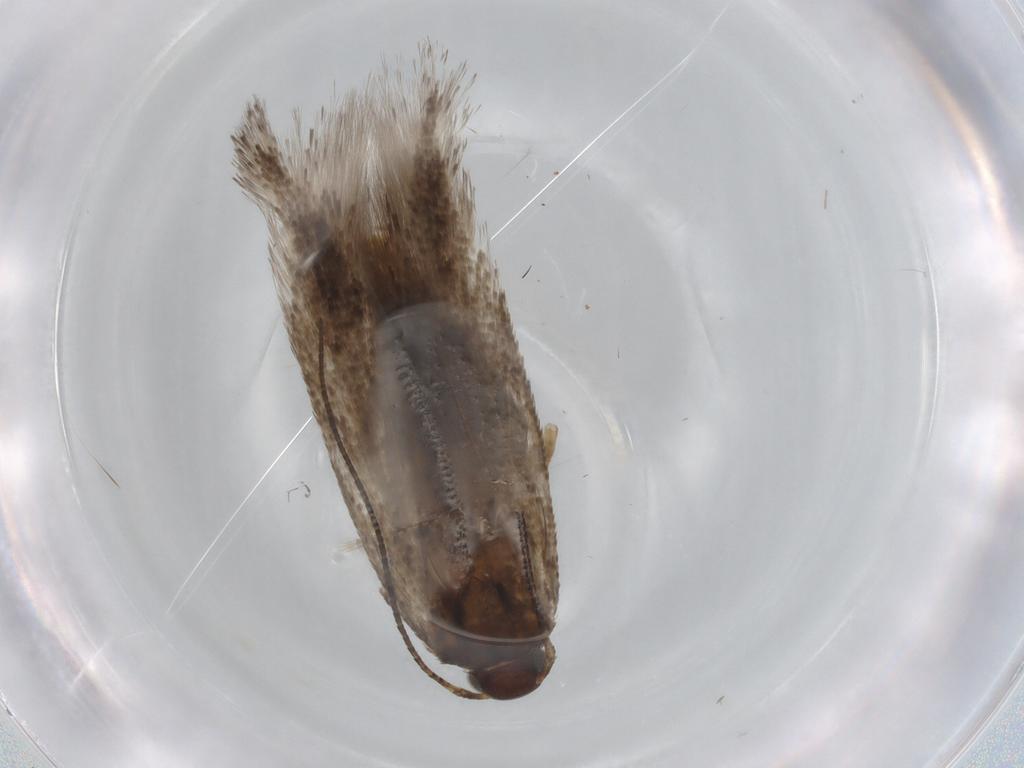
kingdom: Animalia
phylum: Arthropoda
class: Insecta
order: Lepidoptera
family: Gelechiidae
